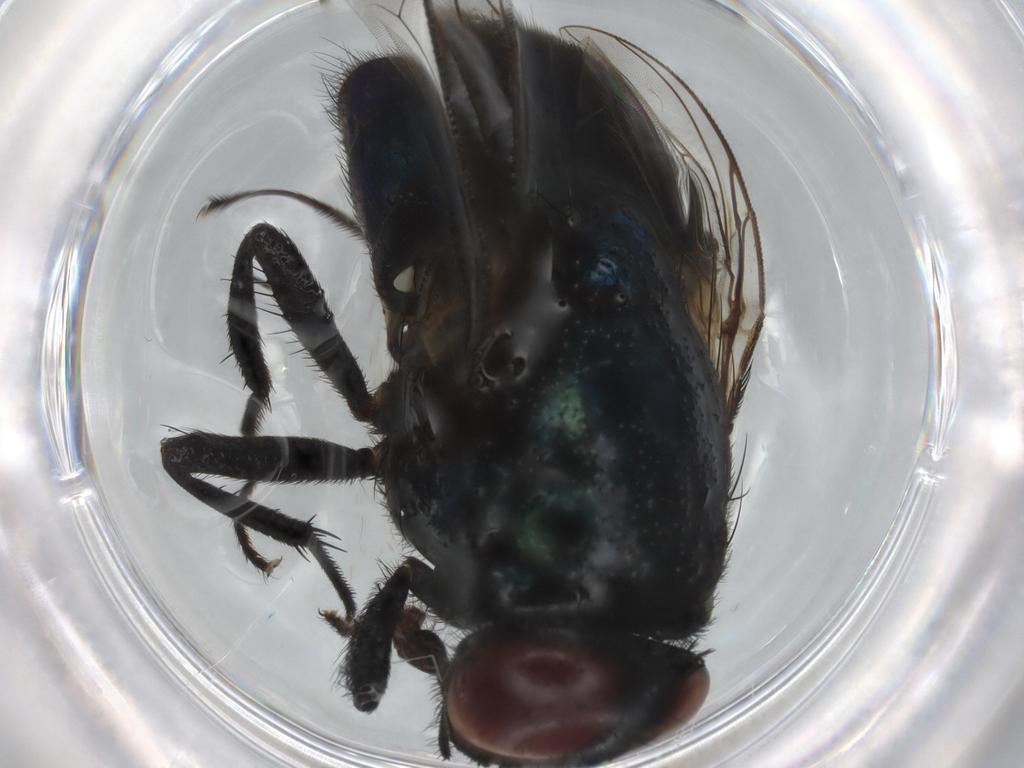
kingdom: Animalia
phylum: Arthropoda
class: Insecta
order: Diptera
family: Muscidae
